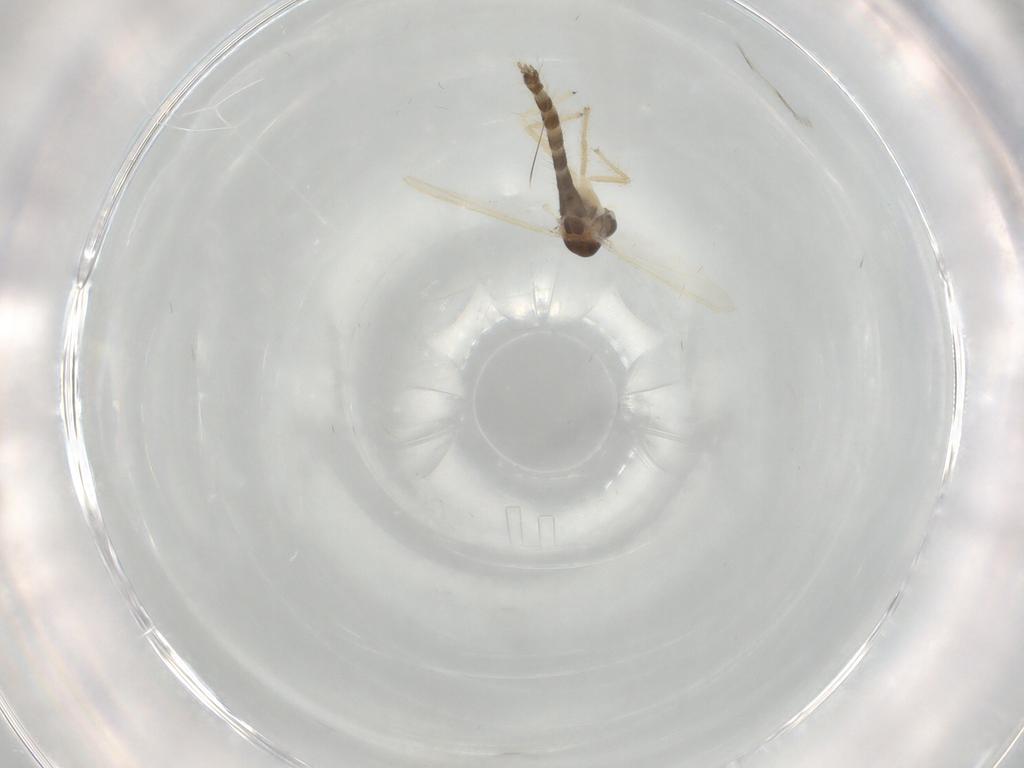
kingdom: Animalia
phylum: Arthropoda
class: Insecta
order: Diptera
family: Chironomidae
